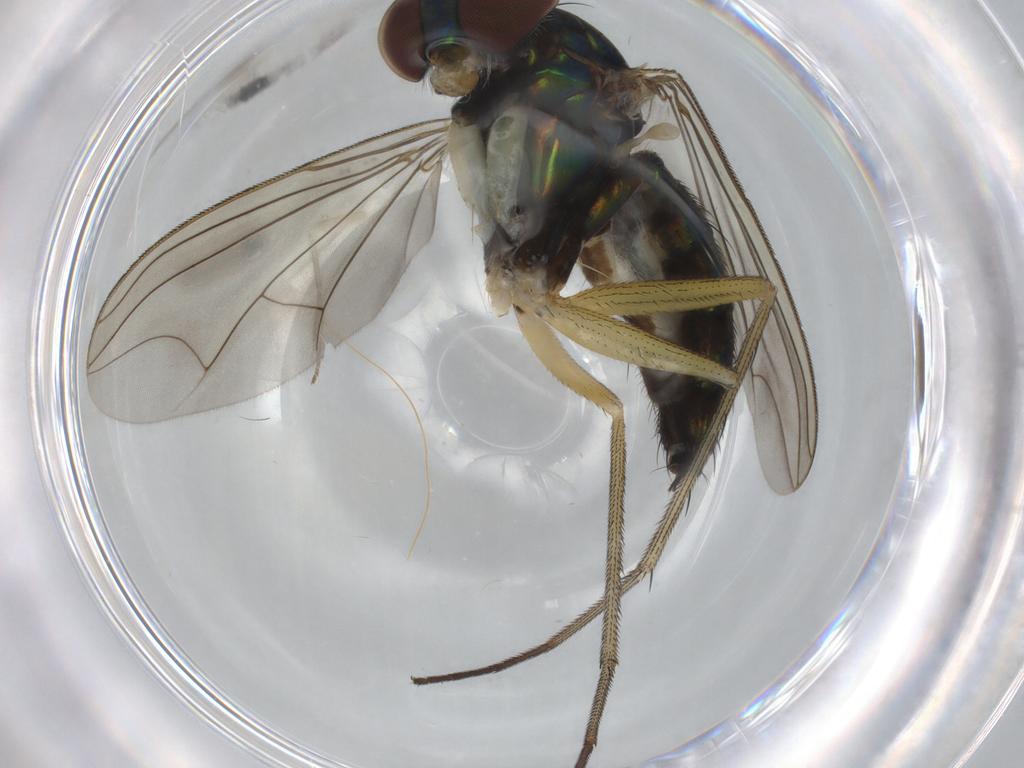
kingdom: Animalia
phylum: Arthropoda
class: Insecta
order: Diptera
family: Dolichopodidae
